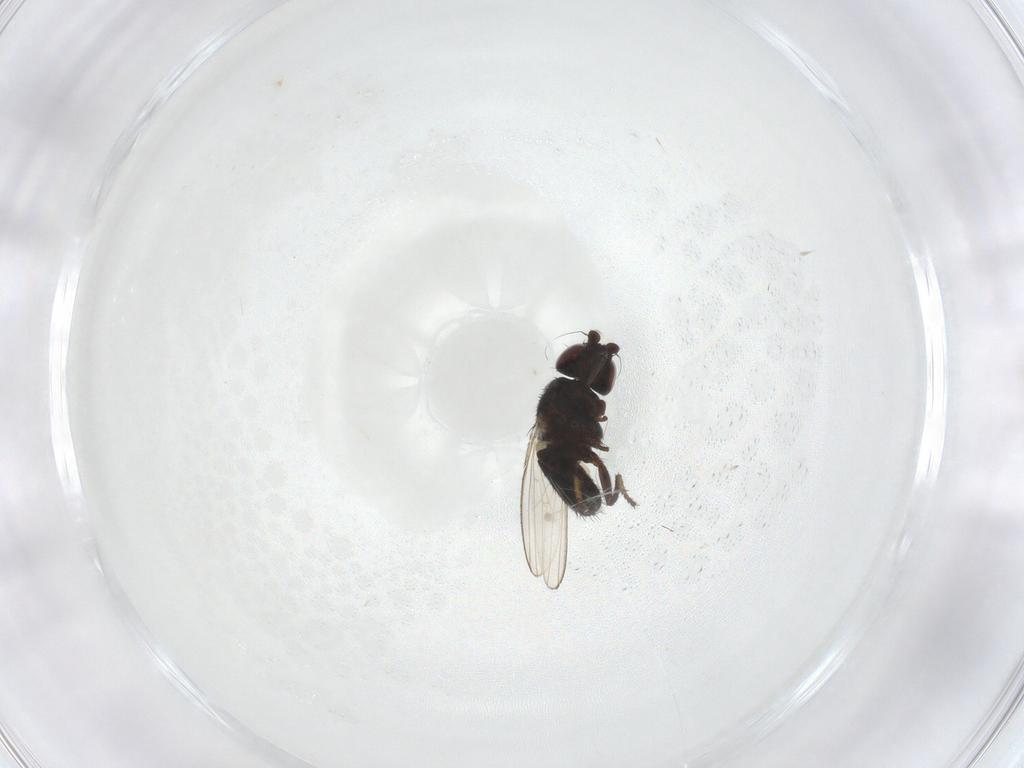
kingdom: Animalia
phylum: Arthropoda
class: Insecta
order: Diptera
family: Milichiidae
